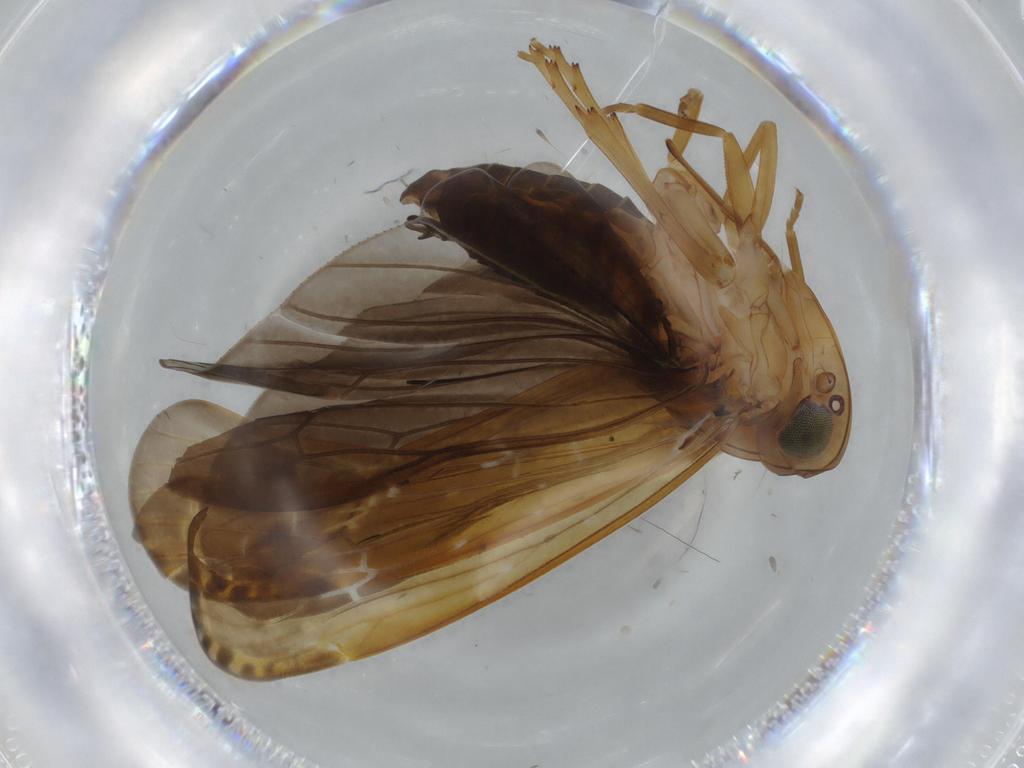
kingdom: Animalia
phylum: Arthropoda
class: Insecta
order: Hemiptera
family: Achilidae
